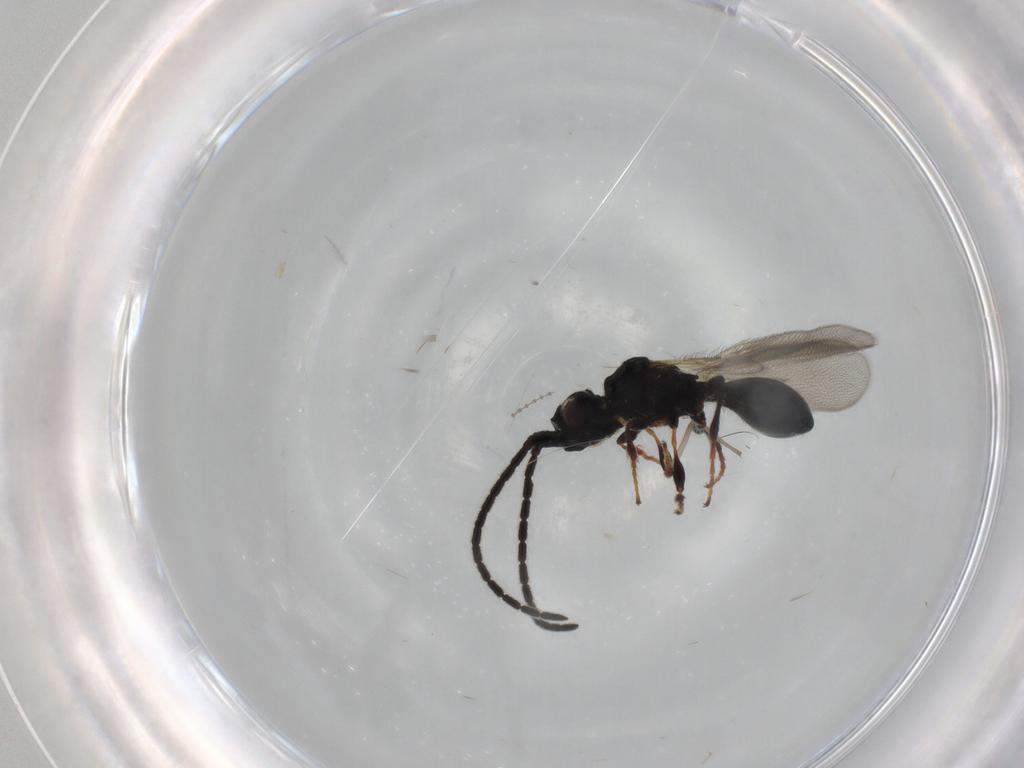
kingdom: Animalia
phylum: Arthropoda
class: Insecta
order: Hymenoptera
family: Diapriidae
